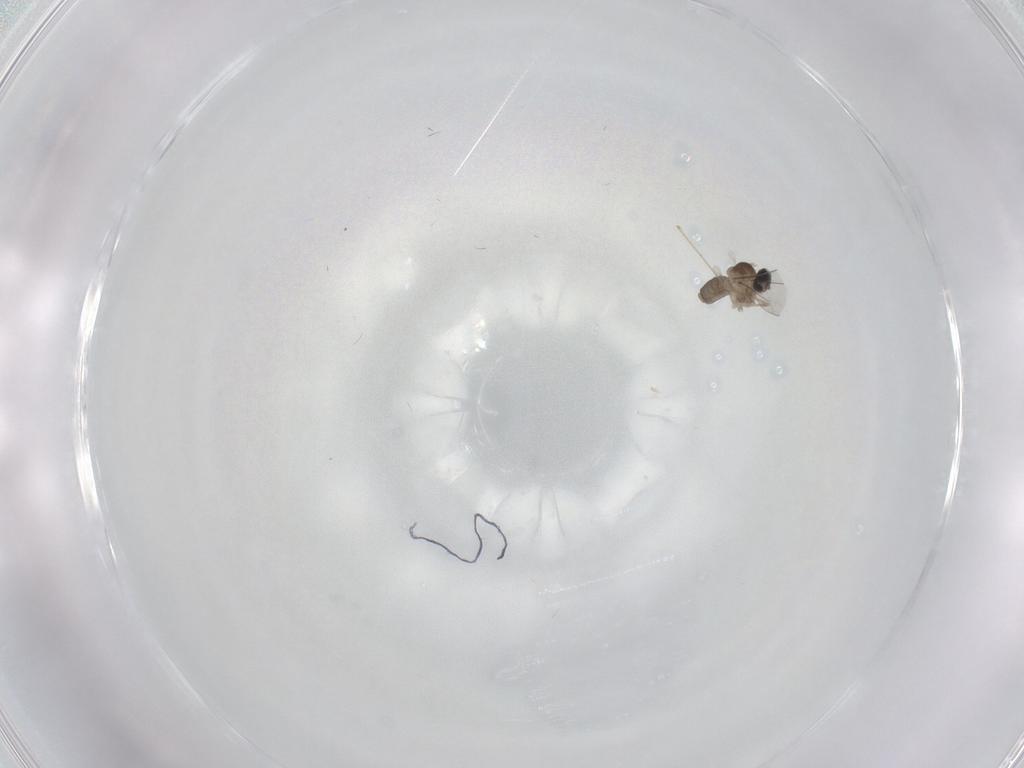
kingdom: Animalia
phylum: Arthropoda
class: Insecta
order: Diptera
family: Cecidomyiidae
